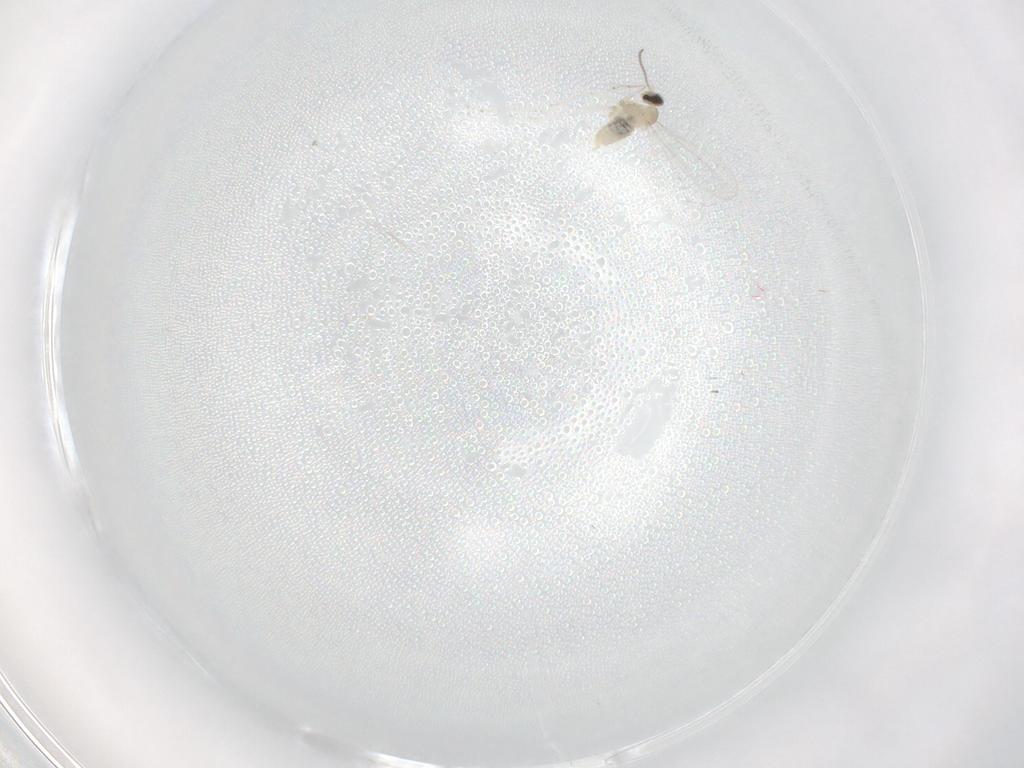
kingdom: Animalia
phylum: Arthropoda
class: Insecta
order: Diptera
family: Cecidomyiidae
